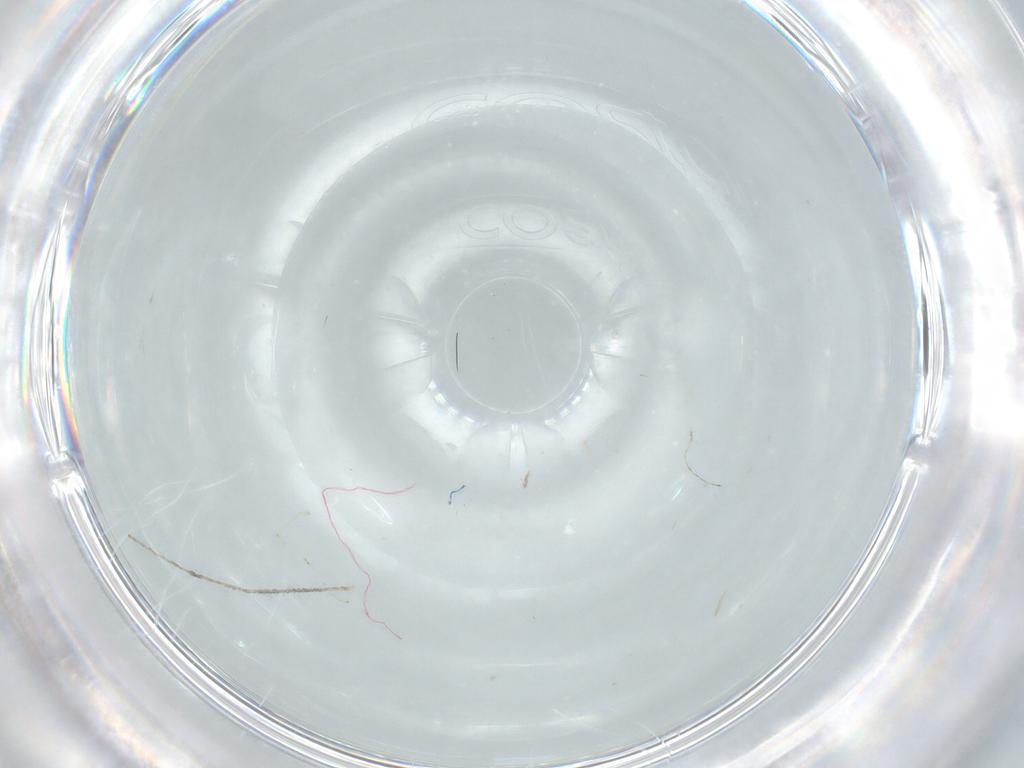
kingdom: Animalia
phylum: Arthropoda
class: Insecta
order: Diptera
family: Cecidomyiidae
